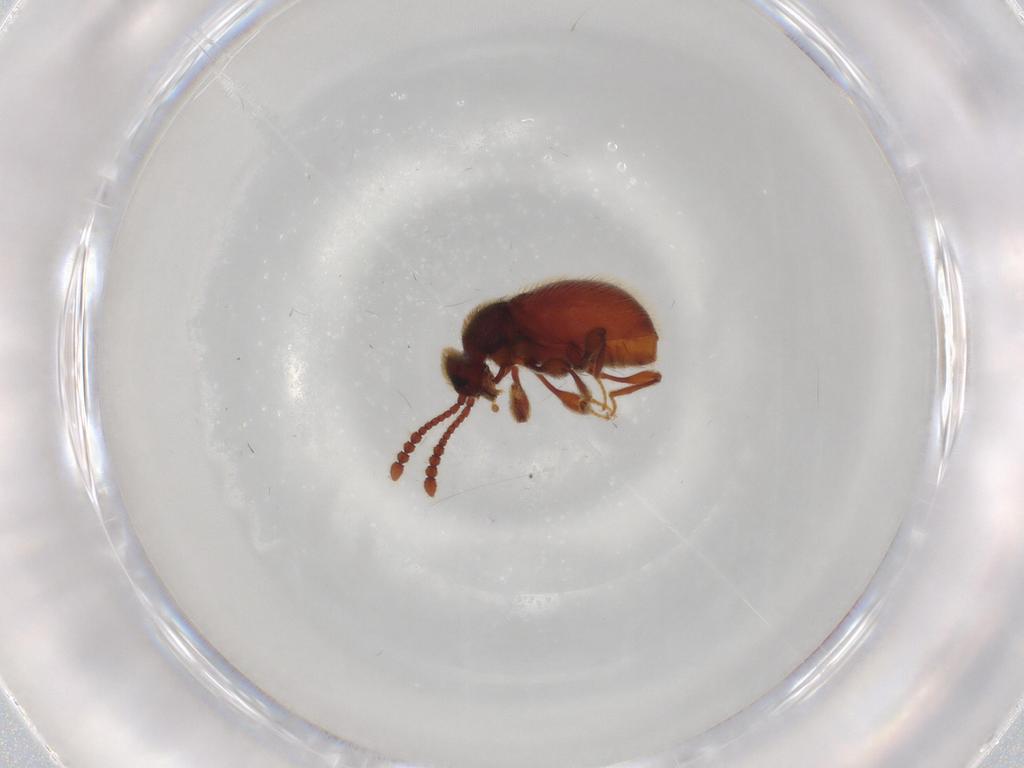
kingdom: Animalia
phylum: Arthropoda
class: Insecta
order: Coleoptera
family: Staphylinidae
